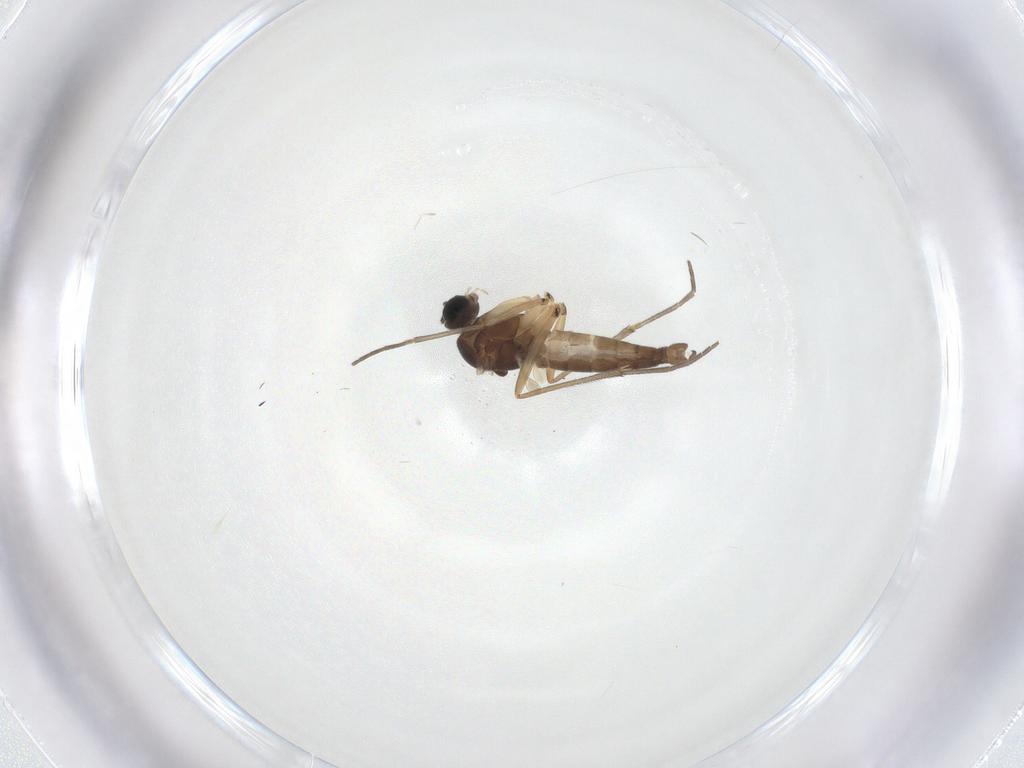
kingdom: Animalia
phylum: Arthropoda
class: Insecta
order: Diptera
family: Sciaridae
